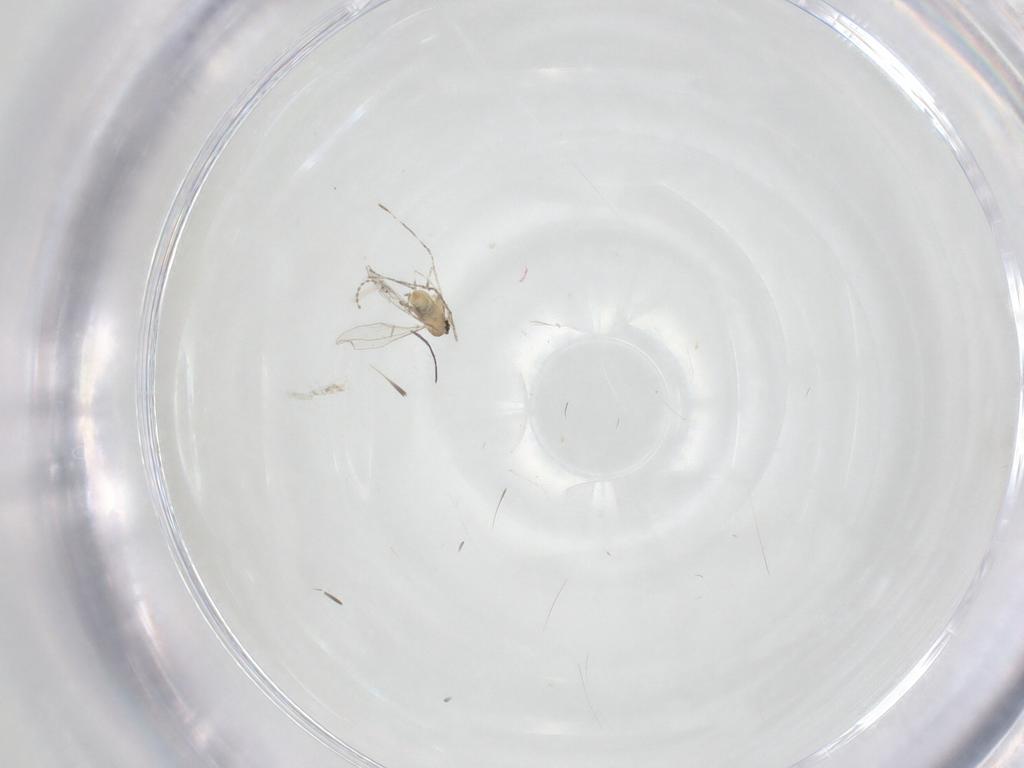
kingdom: Animalia
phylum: Arthropoda
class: Insecta
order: Diptera
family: Dolichopodidae
